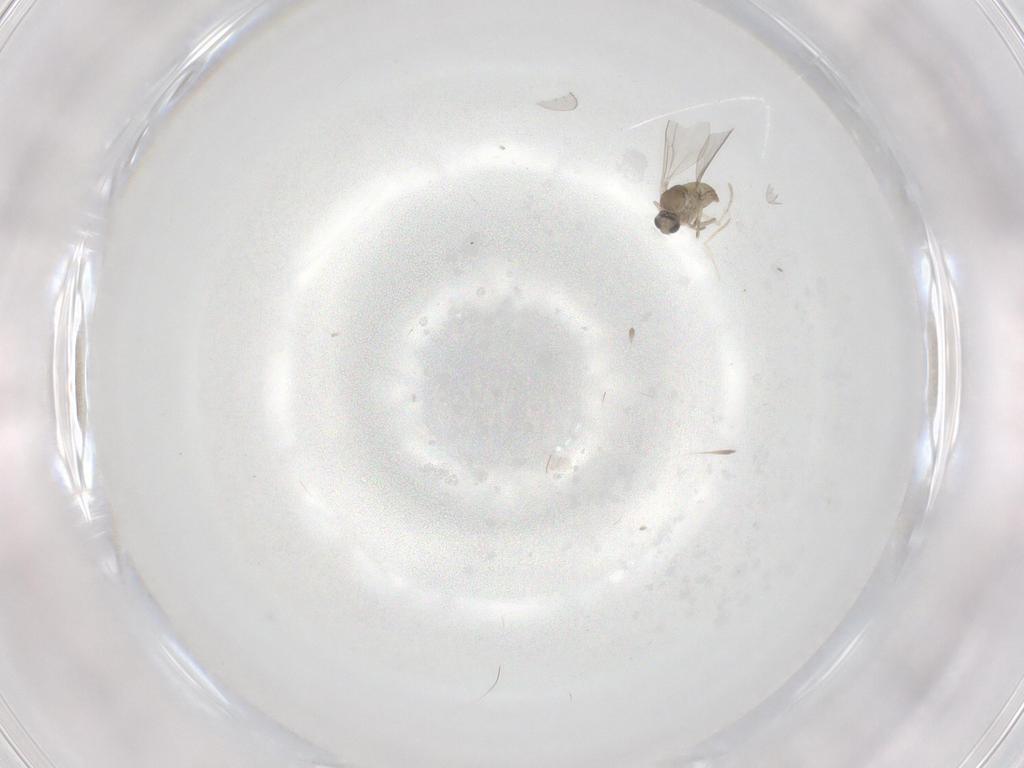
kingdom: Animalia
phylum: Arthropoda
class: Insecta
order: Diptera
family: Cecidomyiidae
